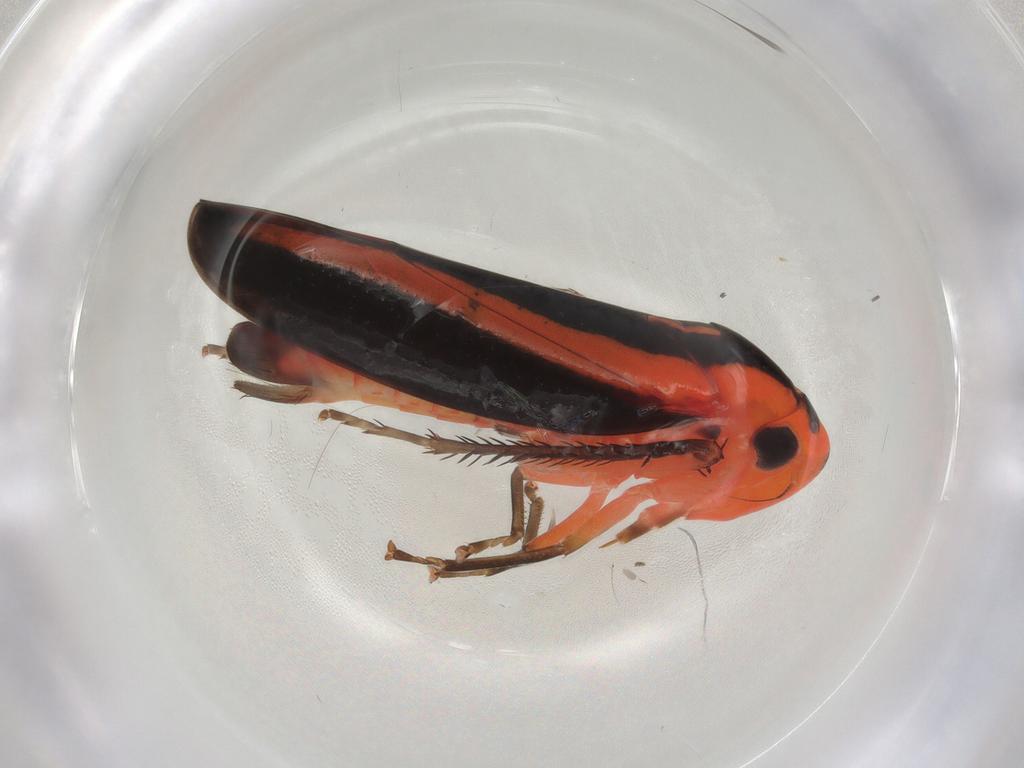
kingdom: Animalia
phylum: Arthropoda
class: Insecta
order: Hemiptera
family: Cicadellidae
